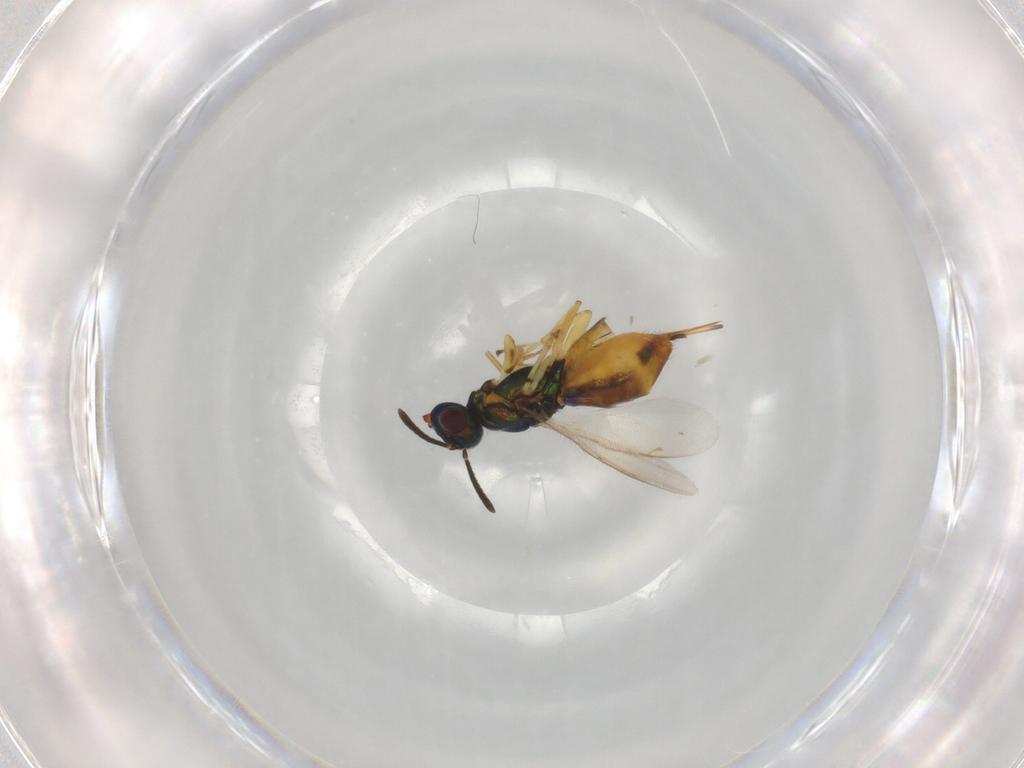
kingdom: Animalia
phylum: Arthropoda
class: Insecta
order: Hymenoptera
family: Eupelmidae
